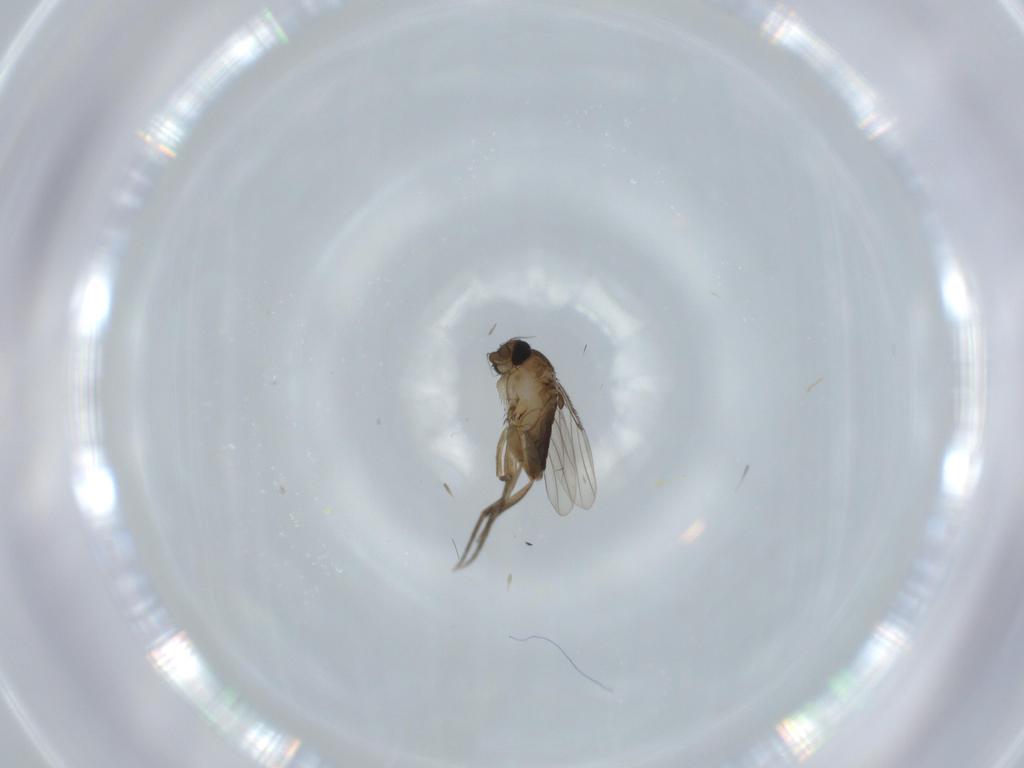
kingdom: Animalia
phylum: Arthropoda
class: Insecta
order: Diptera
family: Phoridae
